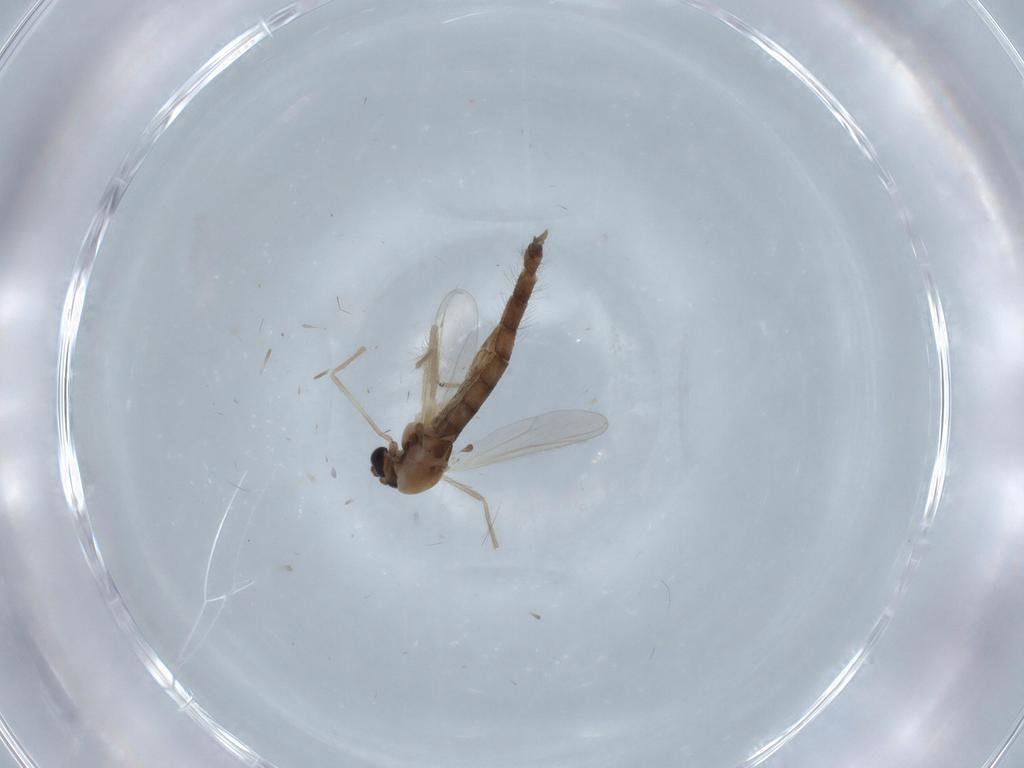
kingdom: Animalia
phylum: Arthropoda
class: Insecta
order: Diptera
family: Chironomidae
